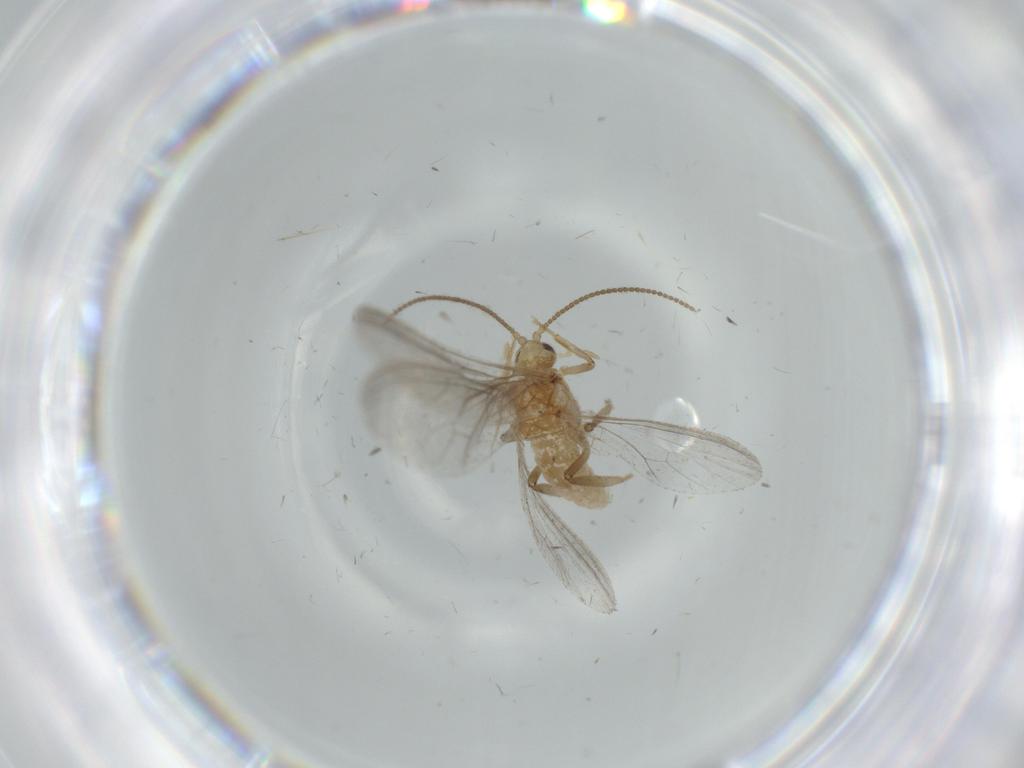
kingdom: Animalia
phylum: Arthropoda
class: Insecta
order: Neuroptera
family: Coniopterygidae
